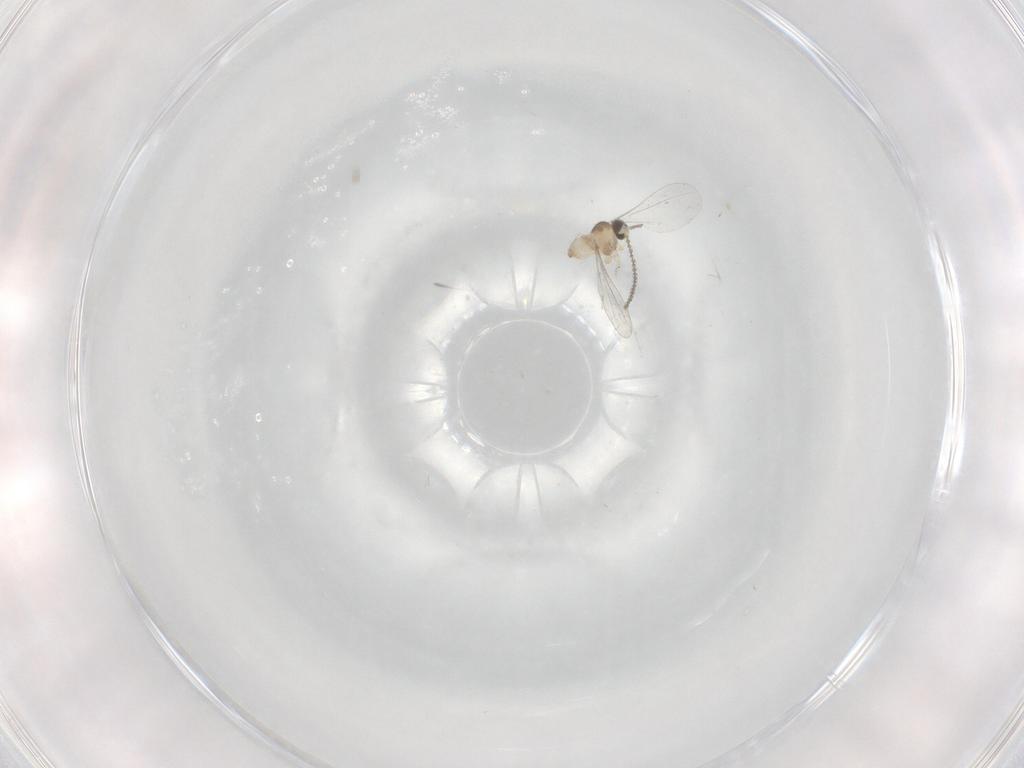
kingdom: Animalia
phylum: Arthropoda
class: Insecta
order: Diptera
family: Cecidomyiidae
